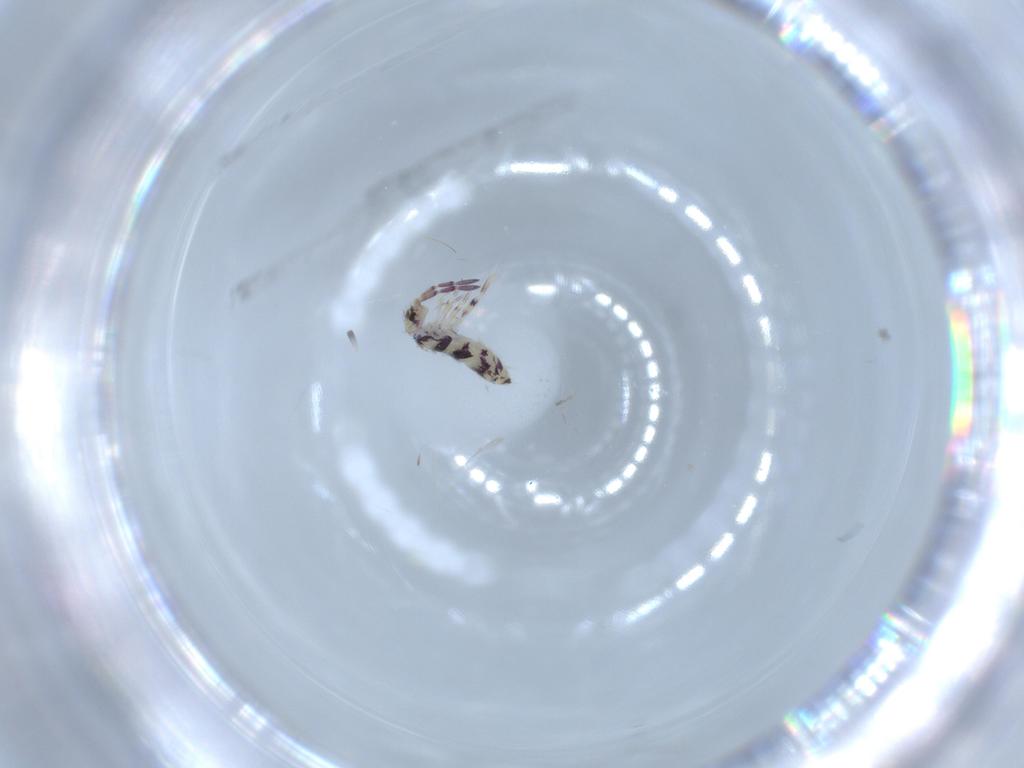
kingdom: Animalia
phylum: Arthropoda
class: Collembola
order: Entomobryomorpha
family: Entomobryidae
